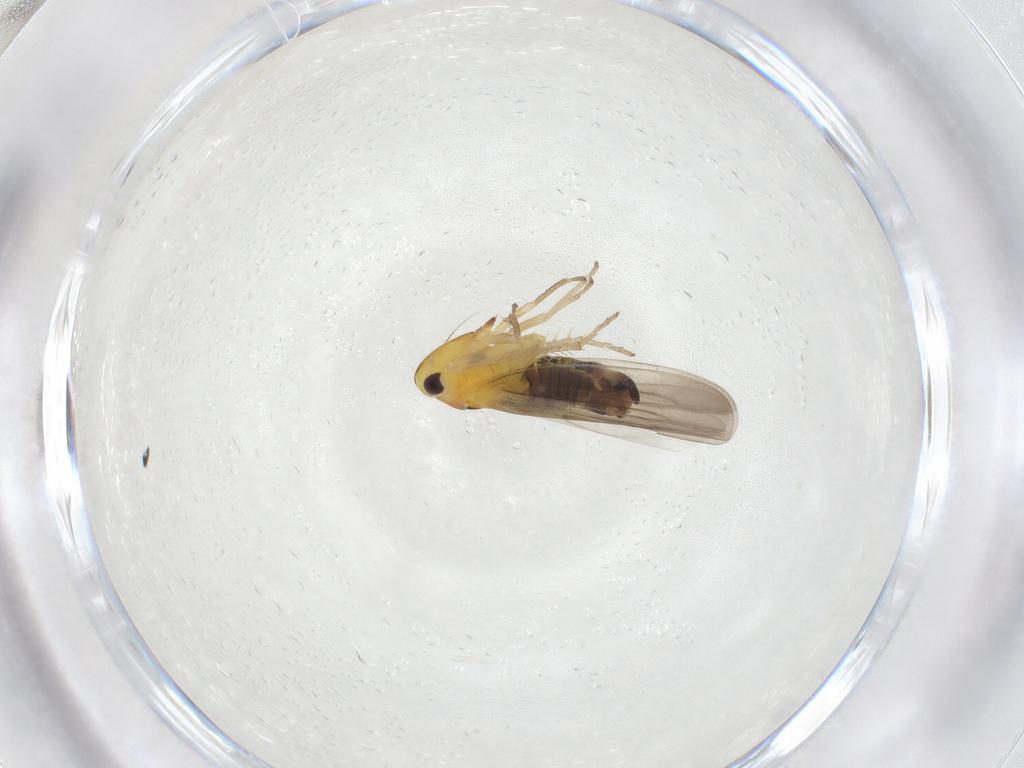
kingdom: Animalia
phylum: Arthropoda
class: Insecta
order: Hemiptera
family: Cicadellidae
